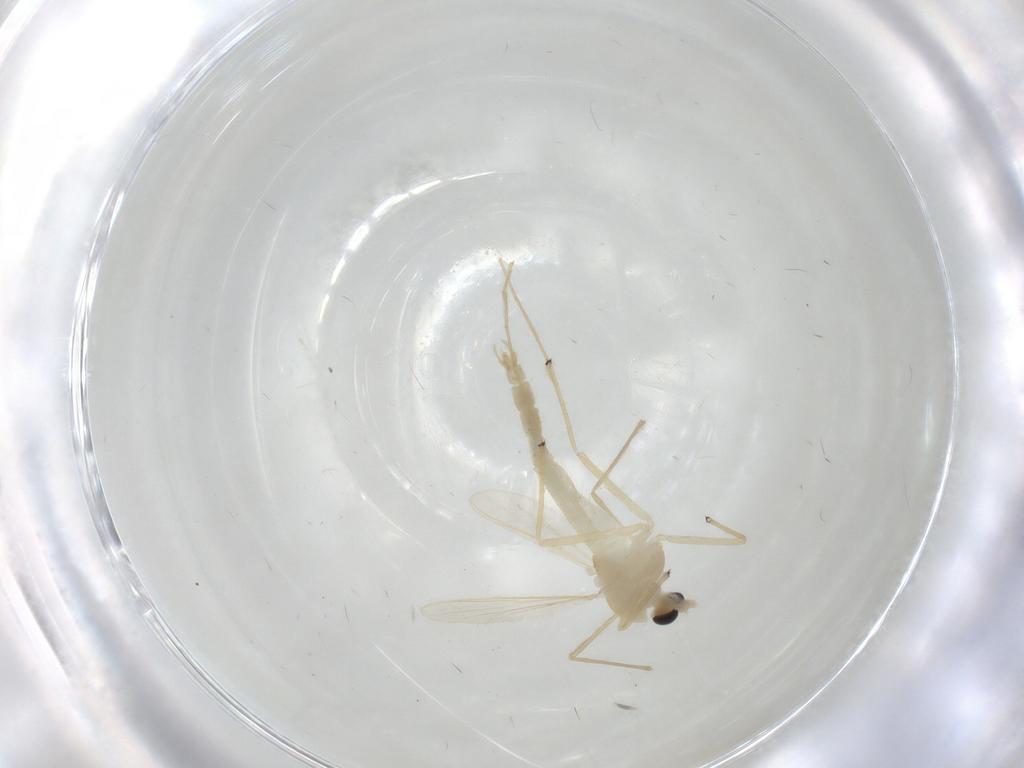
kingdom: Animalia
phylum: Arthropoda
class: Insecta
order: Diptera
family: Chironomidae
